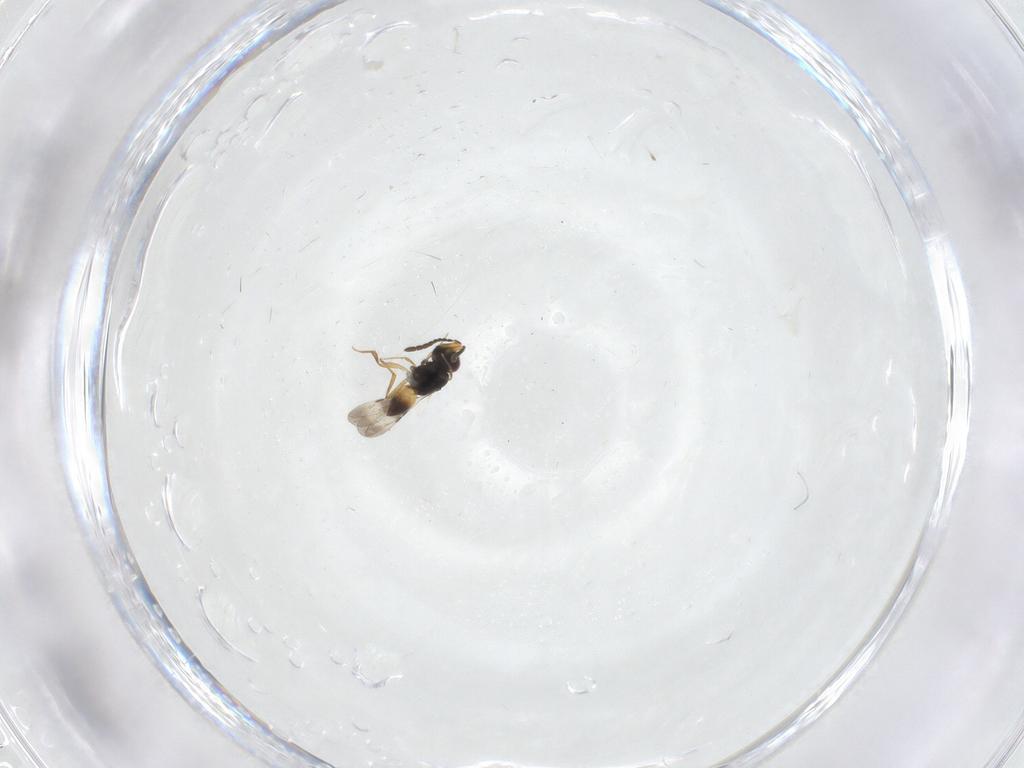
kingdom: Animalia
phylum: Arthropoda
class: Insecta
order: Hymenoptera
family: Ceraphronidae
